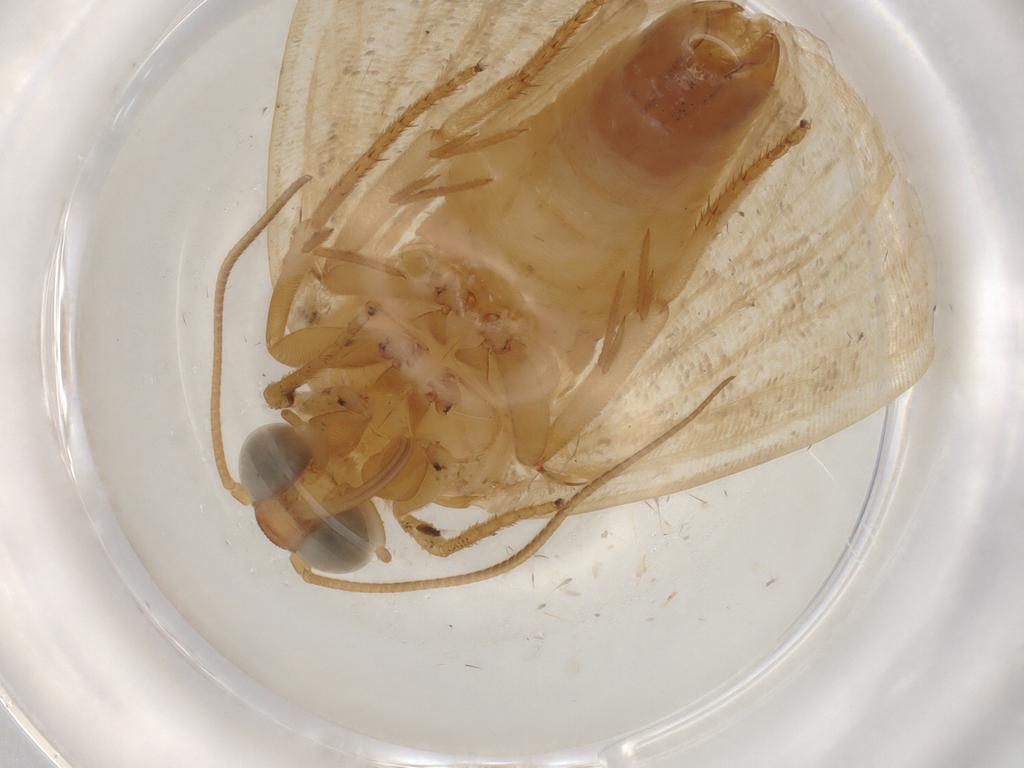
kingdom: Animalia
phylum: Arthropoda
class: Insecta
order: Lepidoptera
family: Noctuidae
